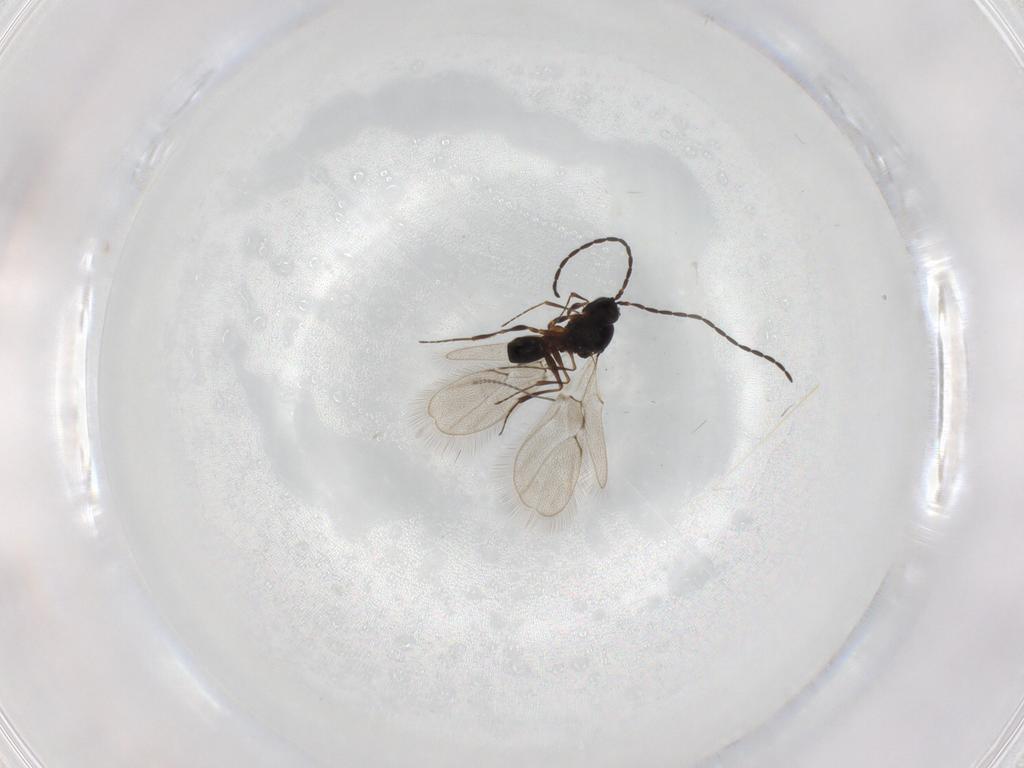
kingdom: Animalia
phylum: Arthropoda
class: Insecta
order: Hymenoptera
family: Figitidae
